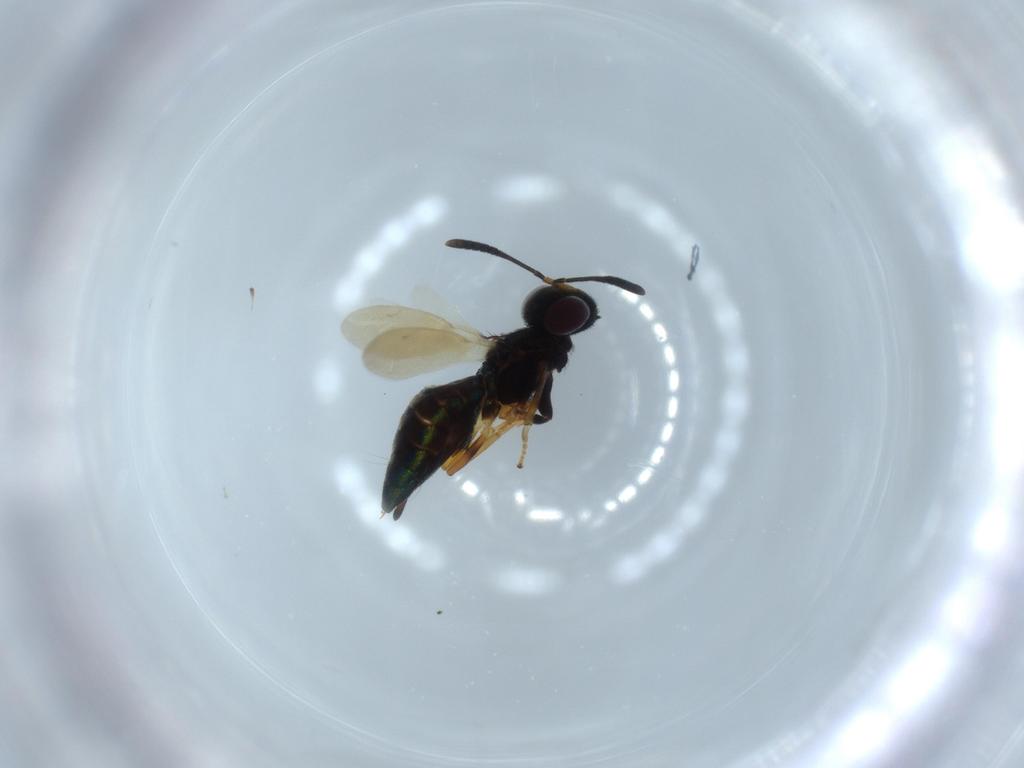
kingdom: Animalia
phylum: Arthropoda
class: Insecta
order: Hymenoptera
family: Eupelmidae
